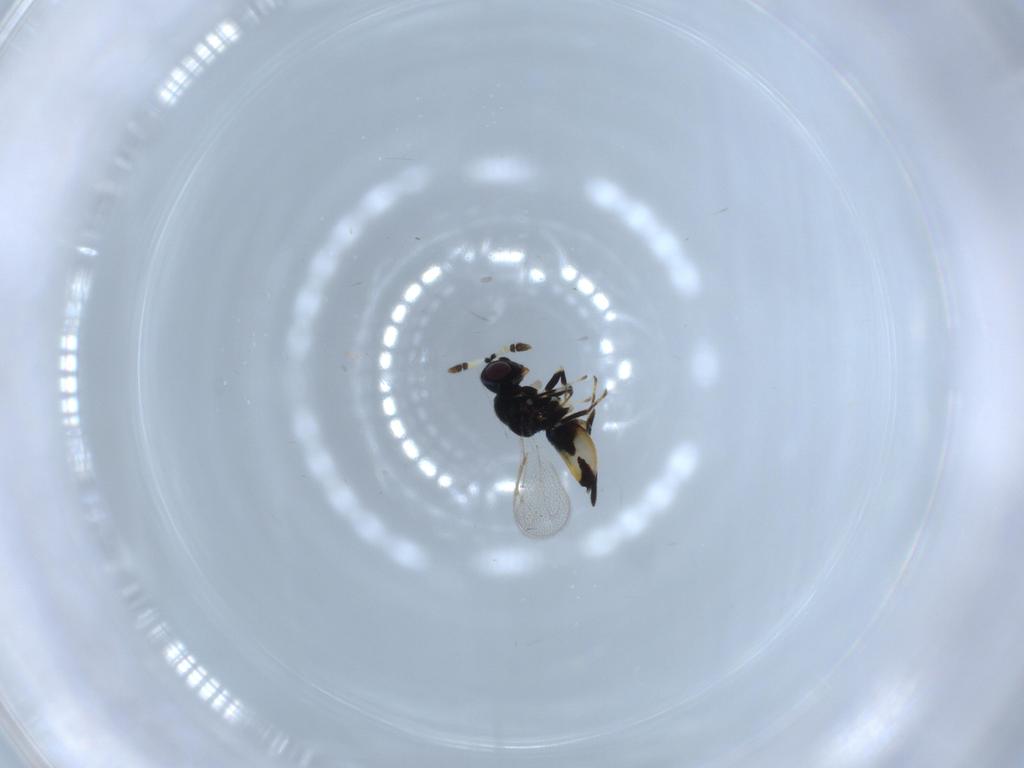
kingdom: Animalia
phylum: Arthropoda
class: Insecta
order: Hymenoptera
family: Pirenidae
